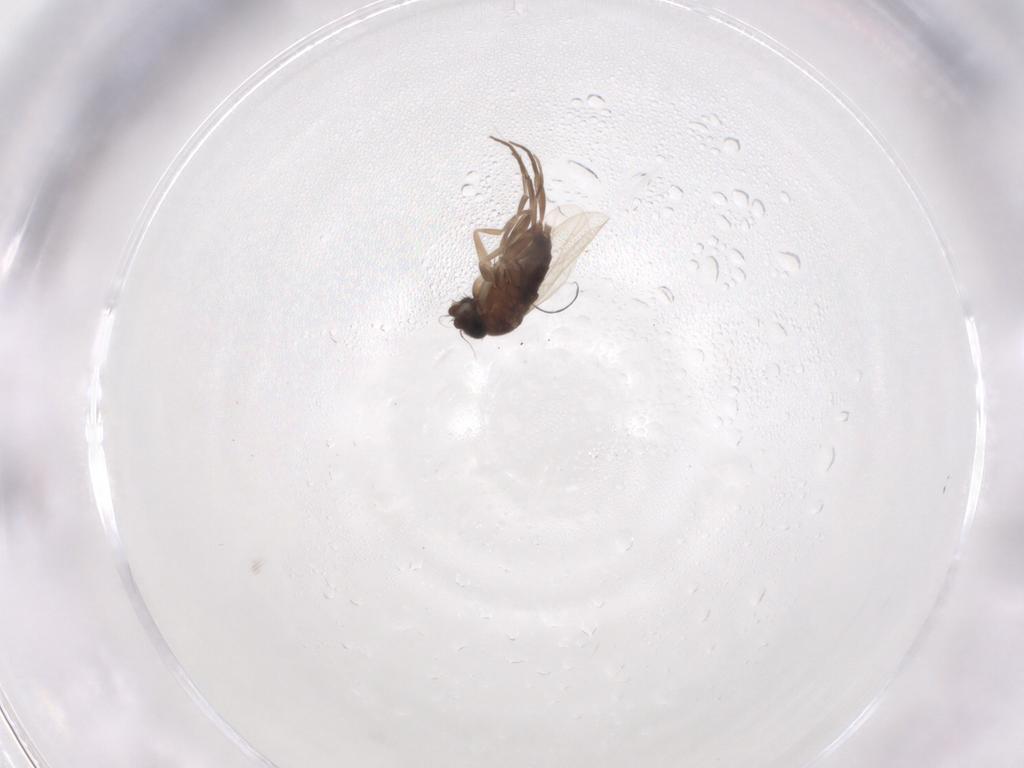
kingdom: Animalia
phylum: Arthropoda
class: Insecta
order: Diptera
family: Phoridae
